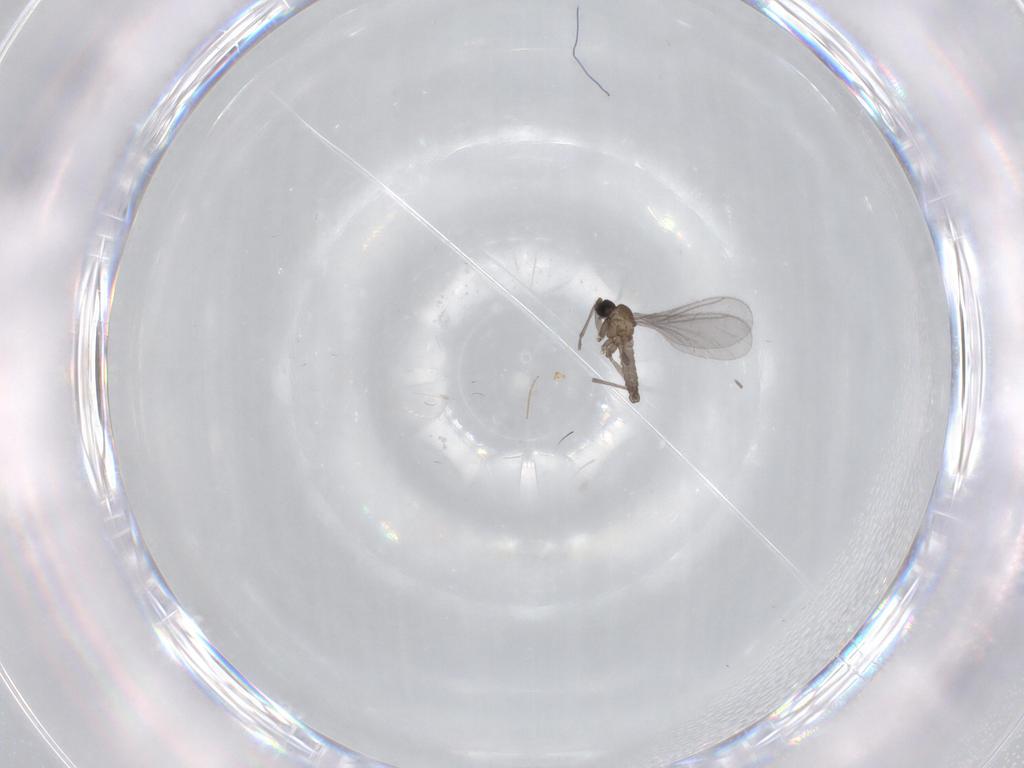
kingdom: Animalia
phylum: Arthropoda
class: Insecta
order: Diptera
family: Sciaridae
